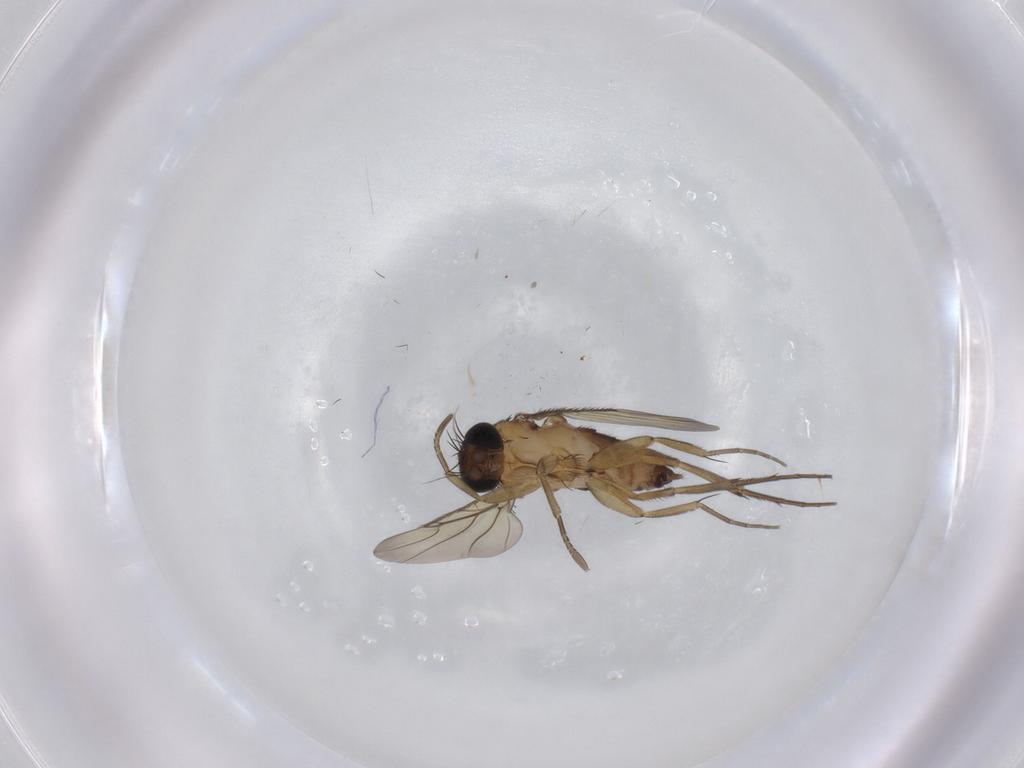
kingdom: Animalia
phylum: Arthropoda
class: Insecta
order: Diptera
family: Phoridae
